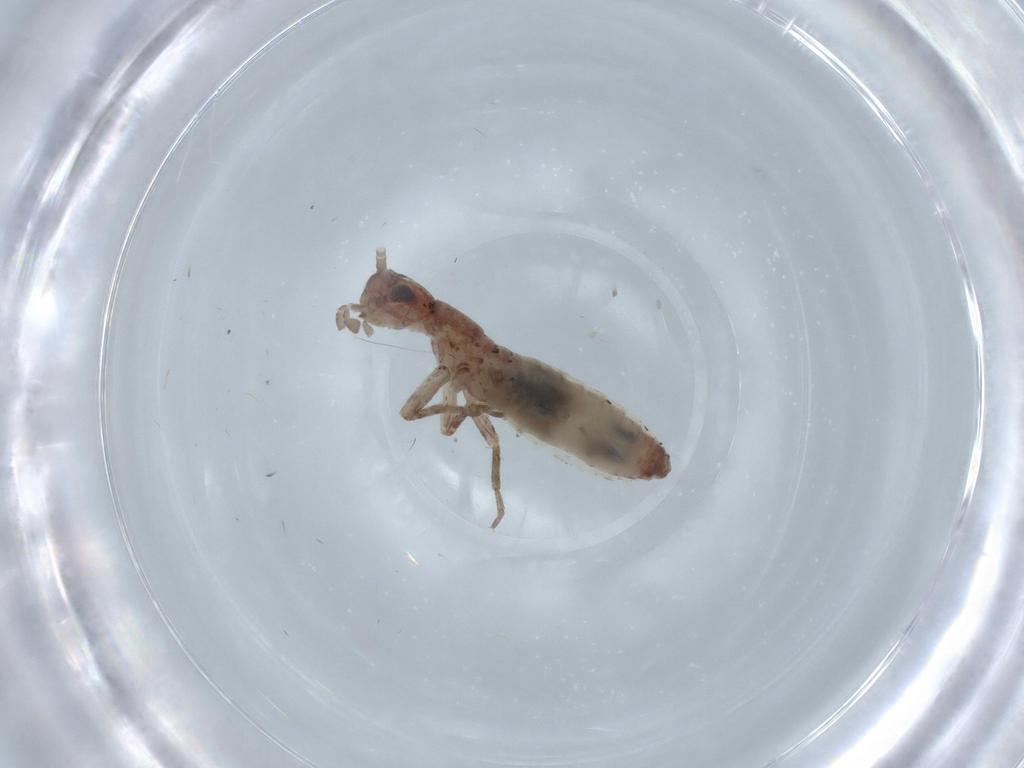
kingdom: Animalia
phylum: Arthropoda
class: Insecta
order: Orthoptera
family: Mogoplistidae
